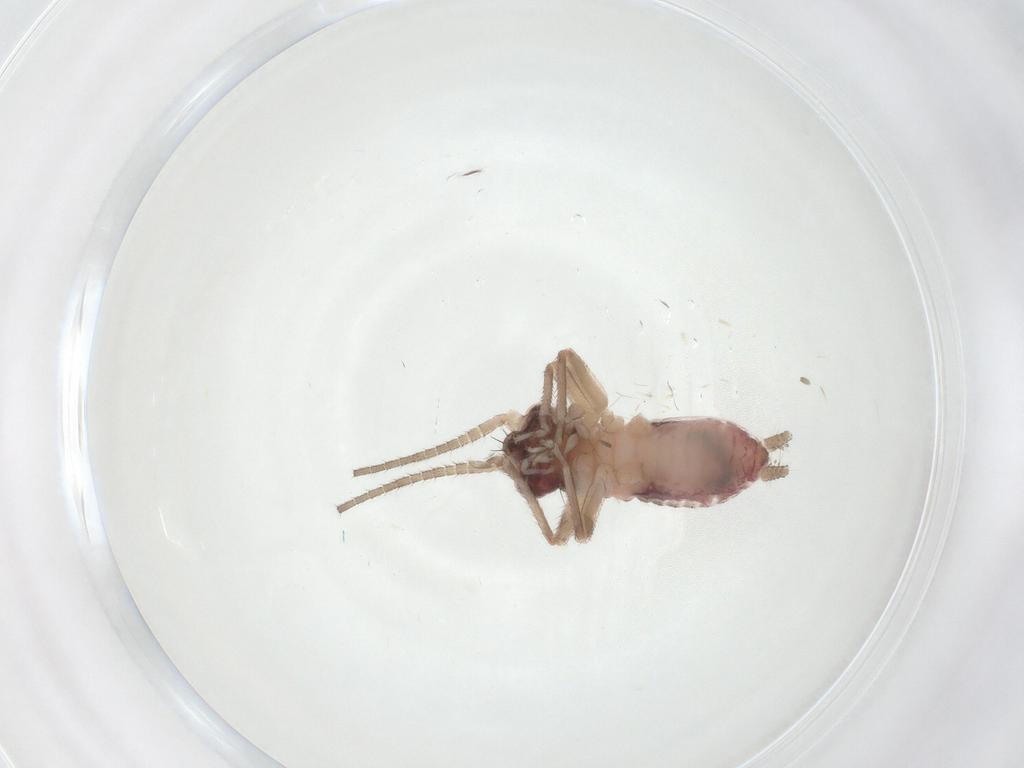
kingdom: Animalia
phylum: Arthropoda
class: Insecta
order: Orthoptera
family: Trigonidiidae
